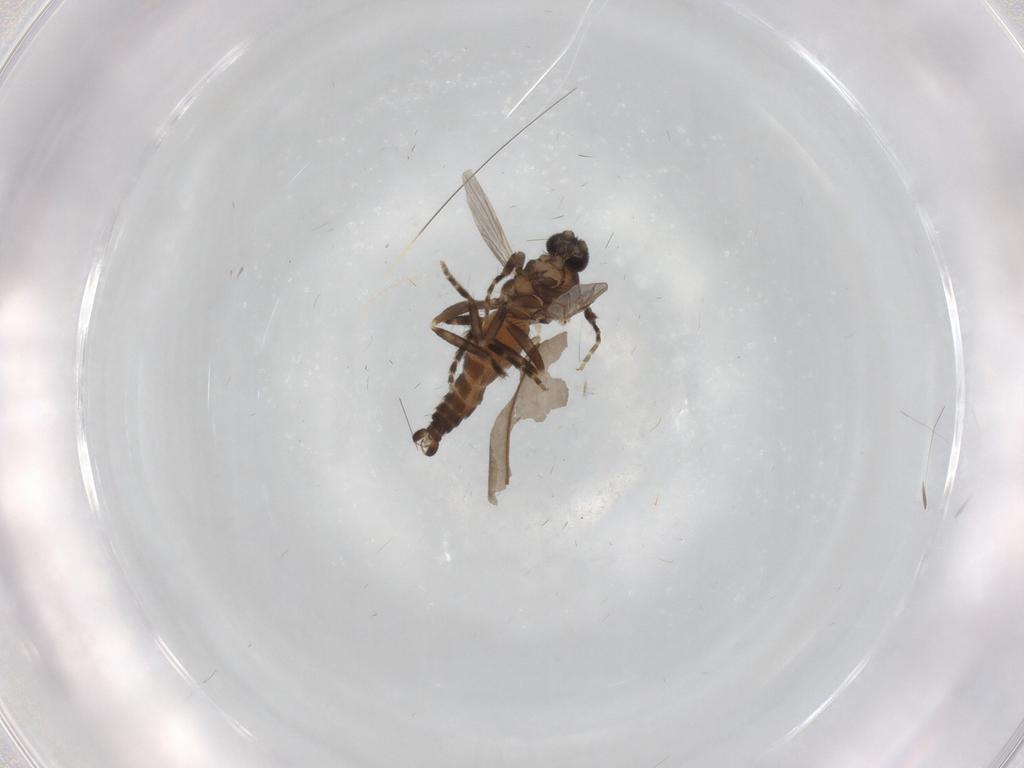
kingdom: Animalia
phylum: Arthropoda
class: Insecta
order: Diptera
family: Ceratopogonidae
